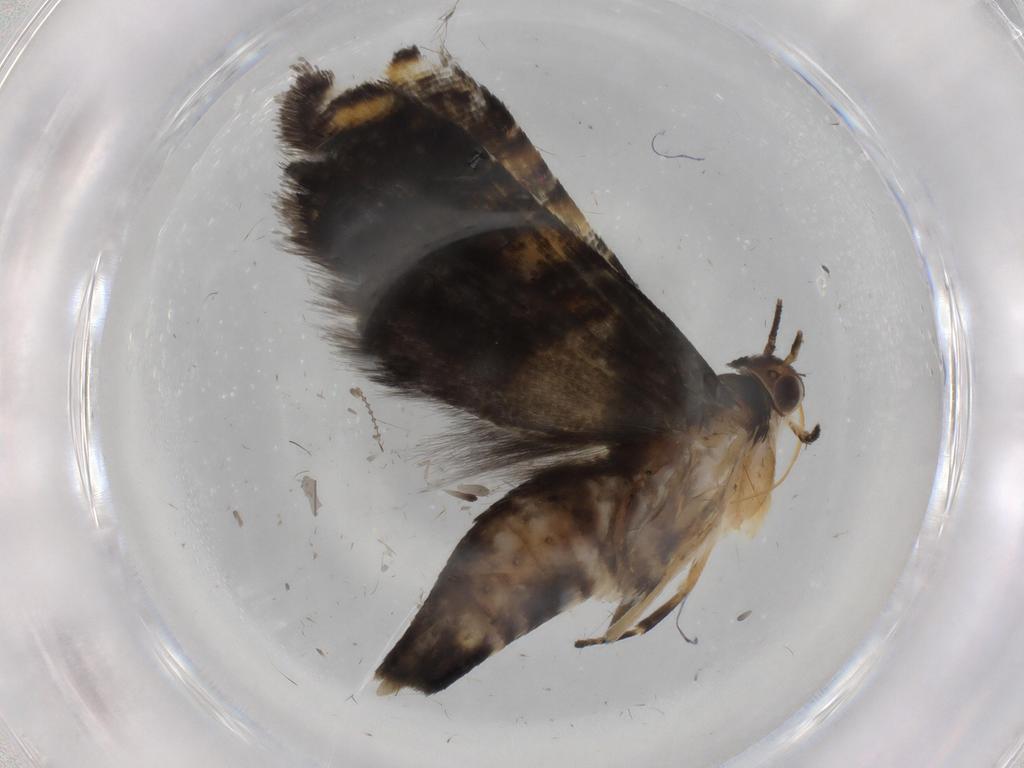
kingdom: Animalia
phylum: Arthropoda
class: Insecta
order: Lepidoptera
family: Glyphipterigidae
